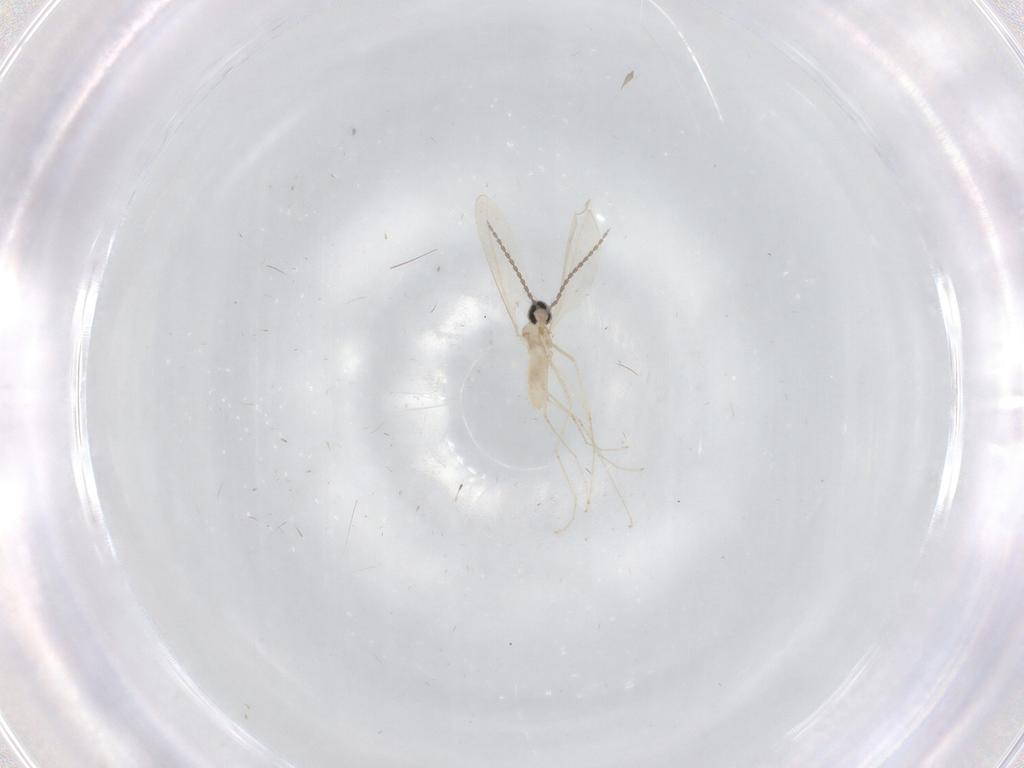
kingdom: Animalia
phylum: Arthropoda
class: Insecta
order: Diptera
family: Cecidomyiidae
